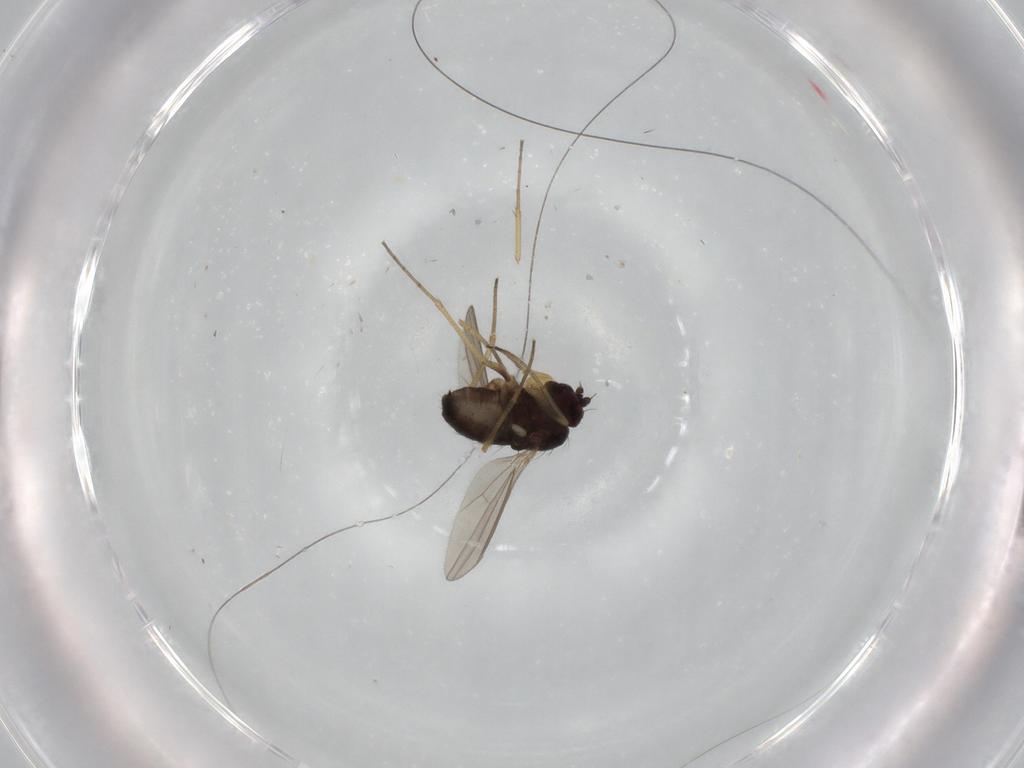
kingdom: Animalia
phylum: Arthropoda
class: Insecta
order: Diptera
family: Dolichopodidae
